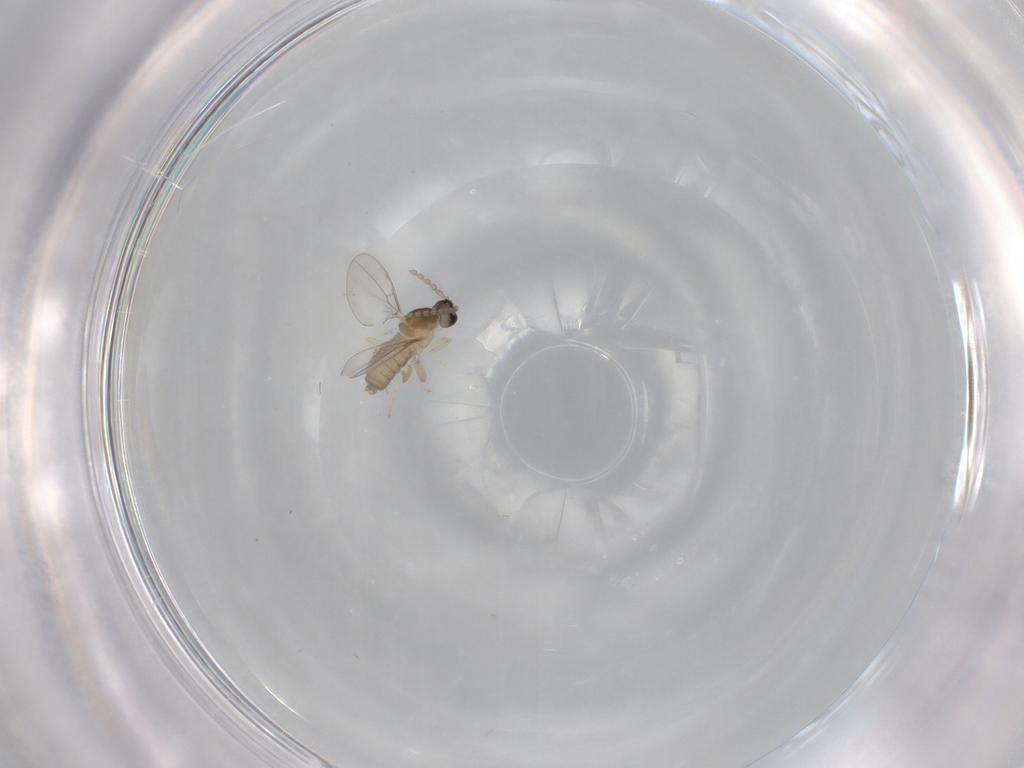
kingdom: Animalia
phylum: Arthropoda
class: Insecta
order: Diptera
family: Cecidomyiidae
